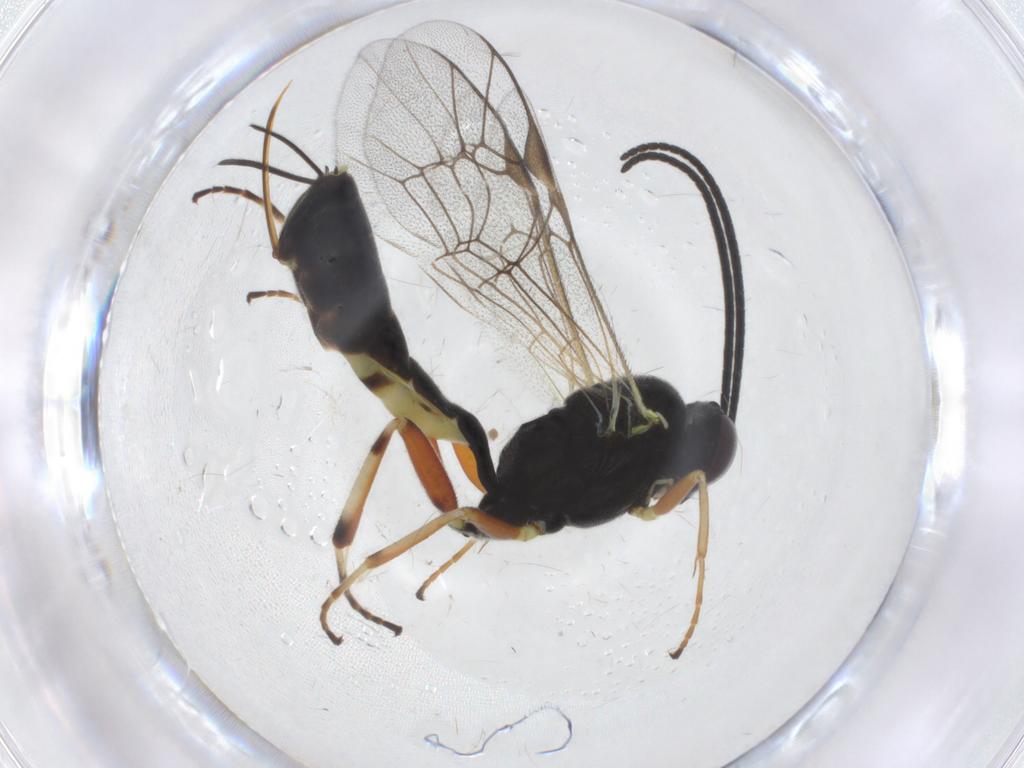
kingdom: Animalia
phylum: Arthropoda
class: Insecta
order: Hymenoptera
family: Ichneumonidae
